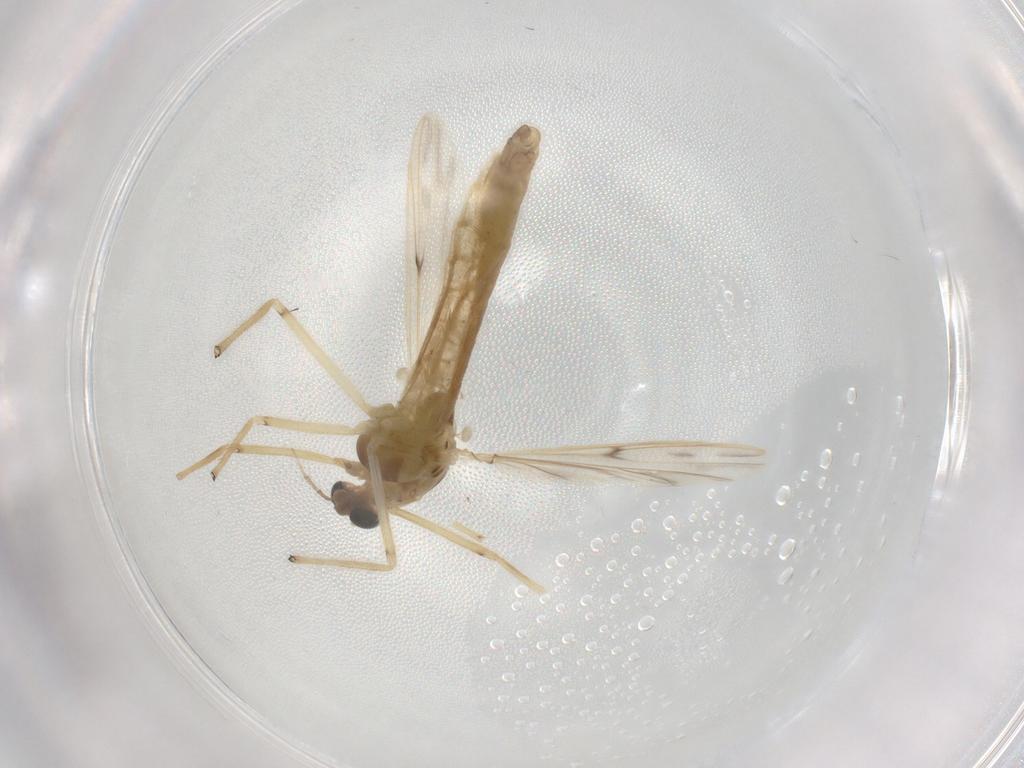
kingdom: Animalia
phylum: Arthropoda
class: Insecta
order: Diptera
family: Chironomidae
